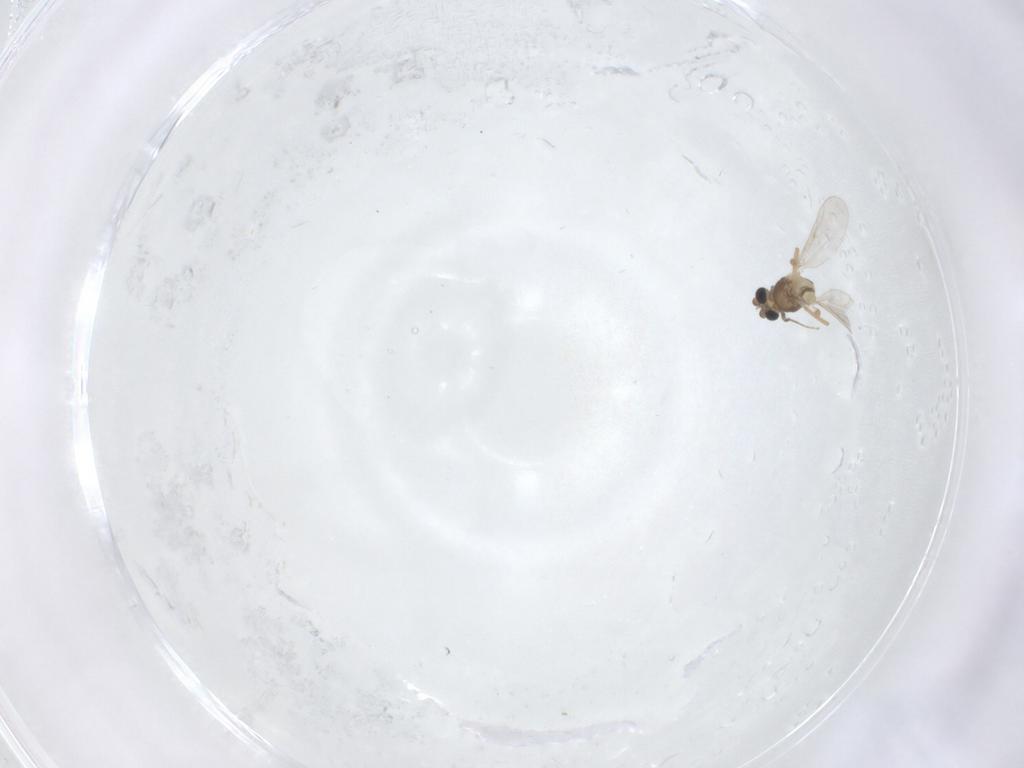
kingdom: Animalia
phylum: Arthropoda
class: Insecta
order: Diptera
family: Chironomidae
